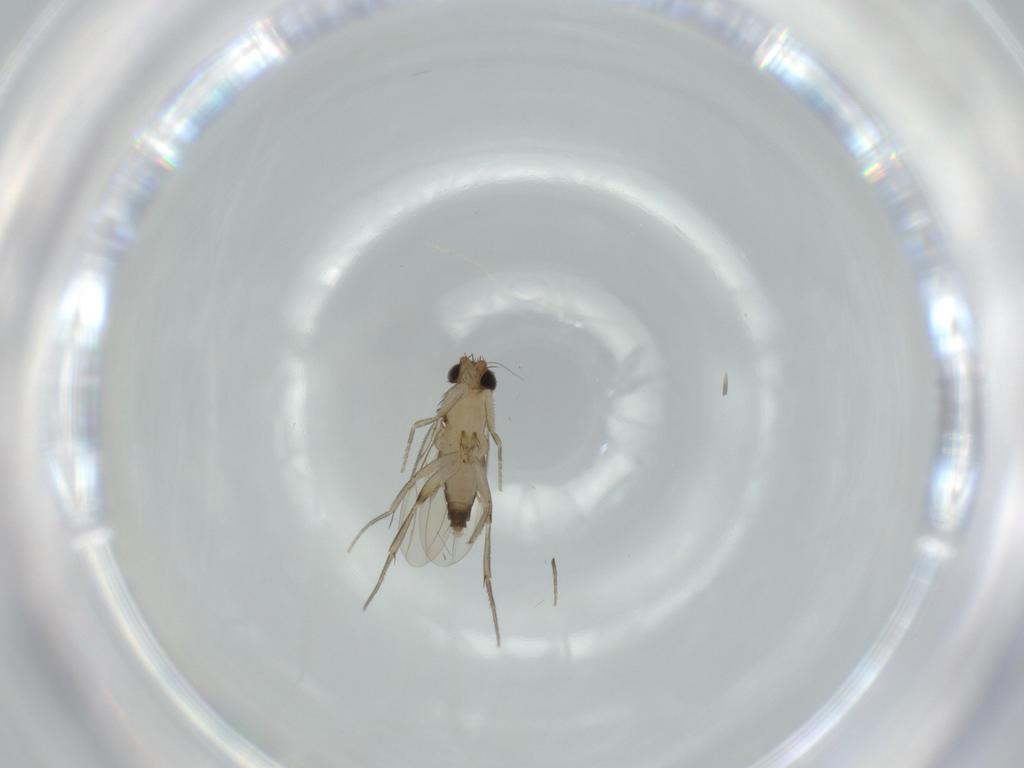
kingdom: Animalia
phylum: Arthropoda
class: Insecta
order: Diptera
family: Phoridae
